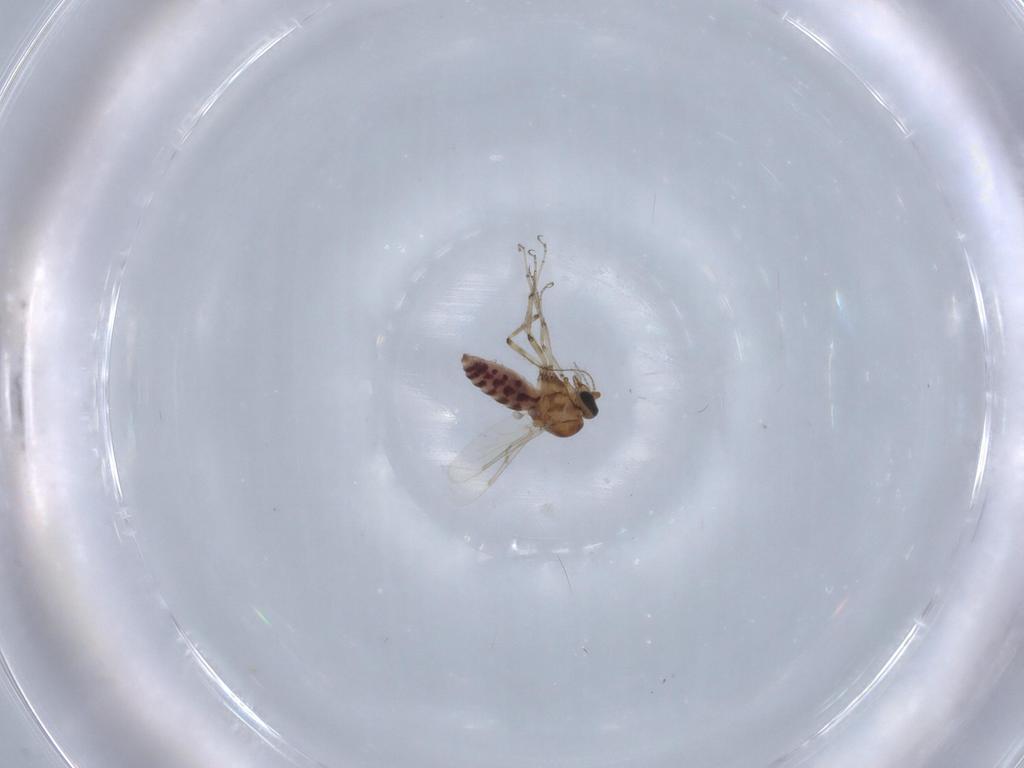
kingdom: Animalia
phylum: Arthropoda
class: Insecta
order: Diptera
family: Ceratopogonidae
